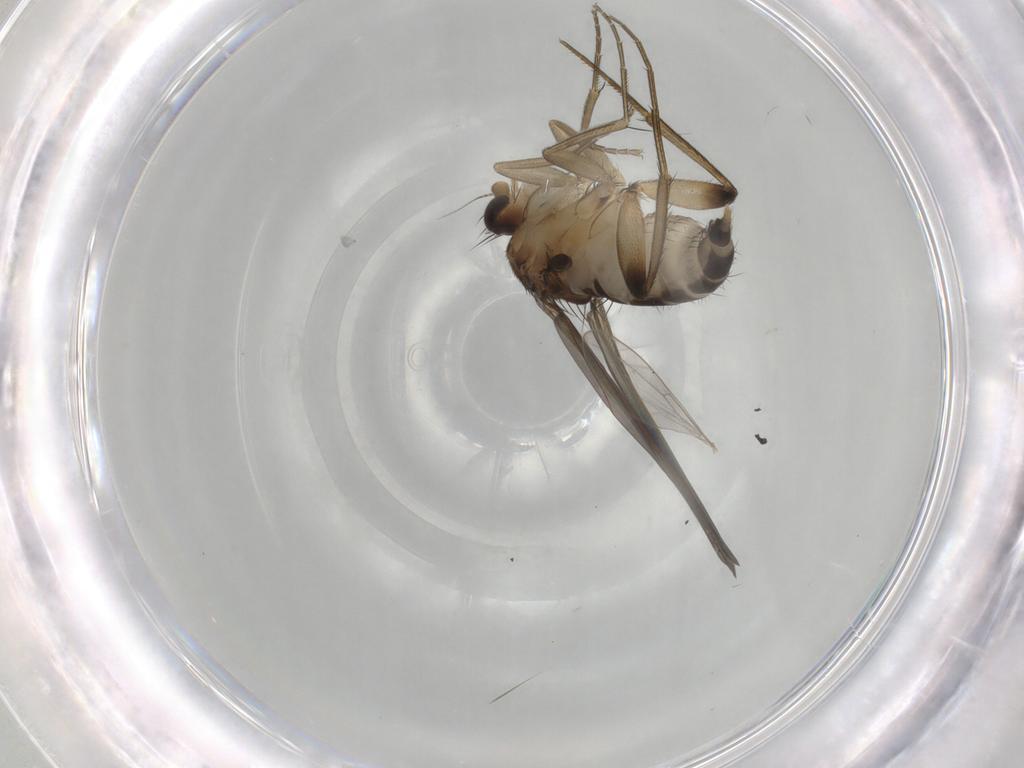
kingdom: Animalia
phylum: Arthropoda
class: Insecta
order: Diptera
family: Phoridae
